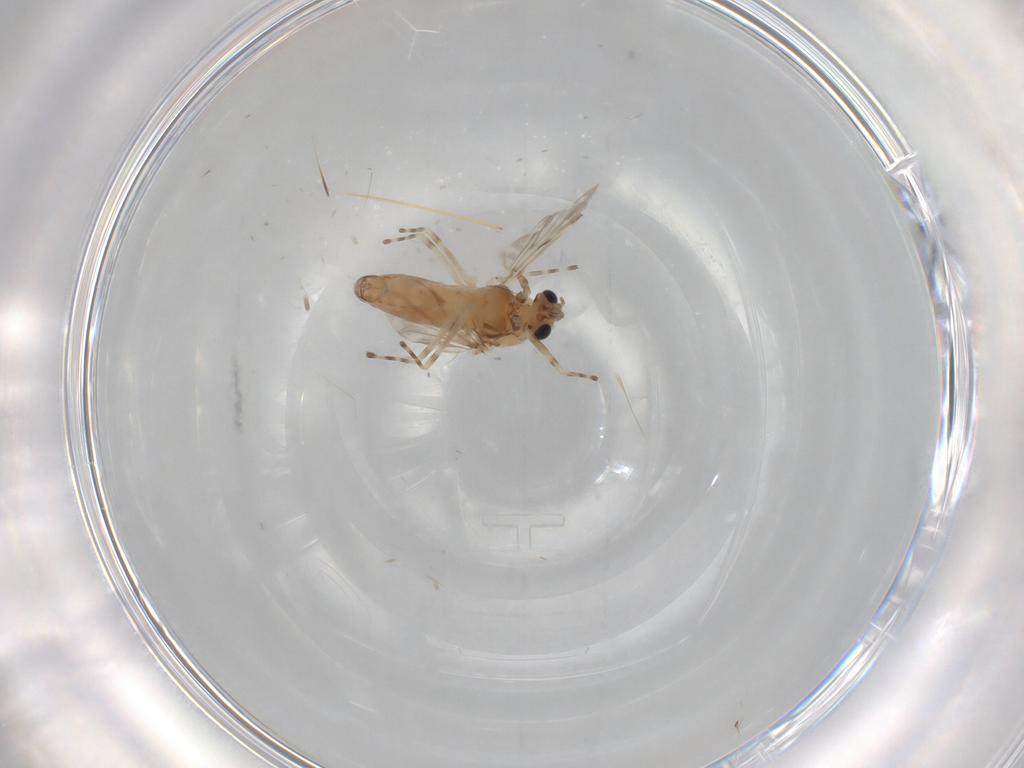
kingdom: Animalia
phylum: Arthropoda
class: Insecta
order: Diptera
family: Chironomidae
